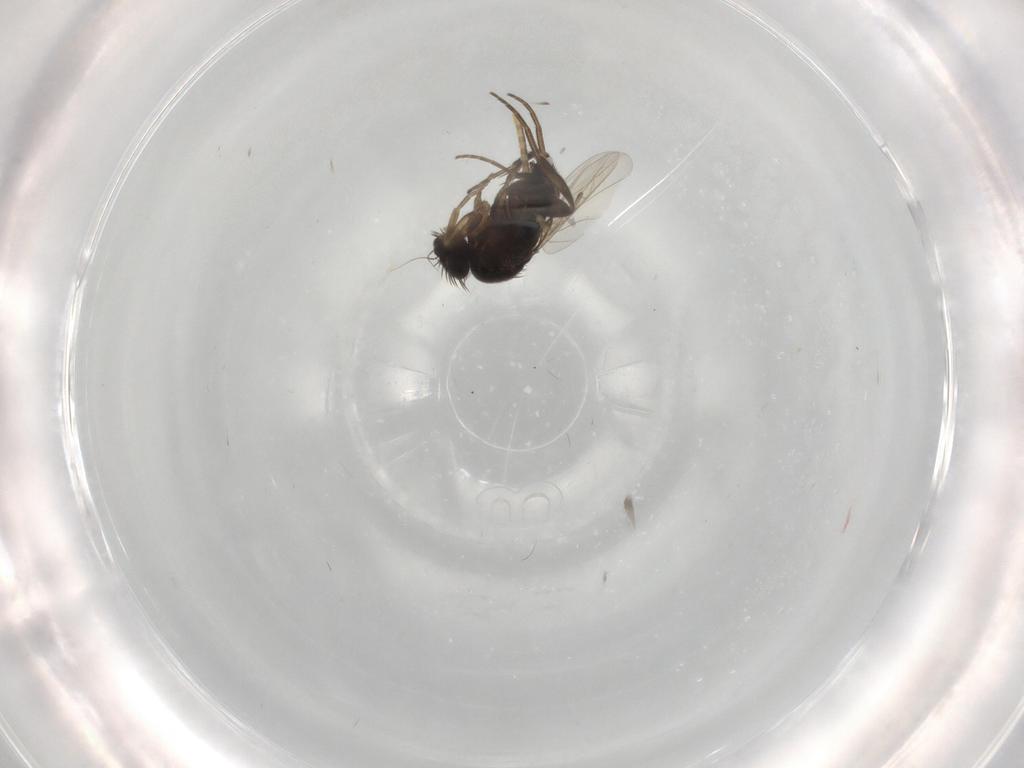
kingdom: Animalia
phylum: Arthropoda
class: Insecta
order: Diptera
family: Phoridae
